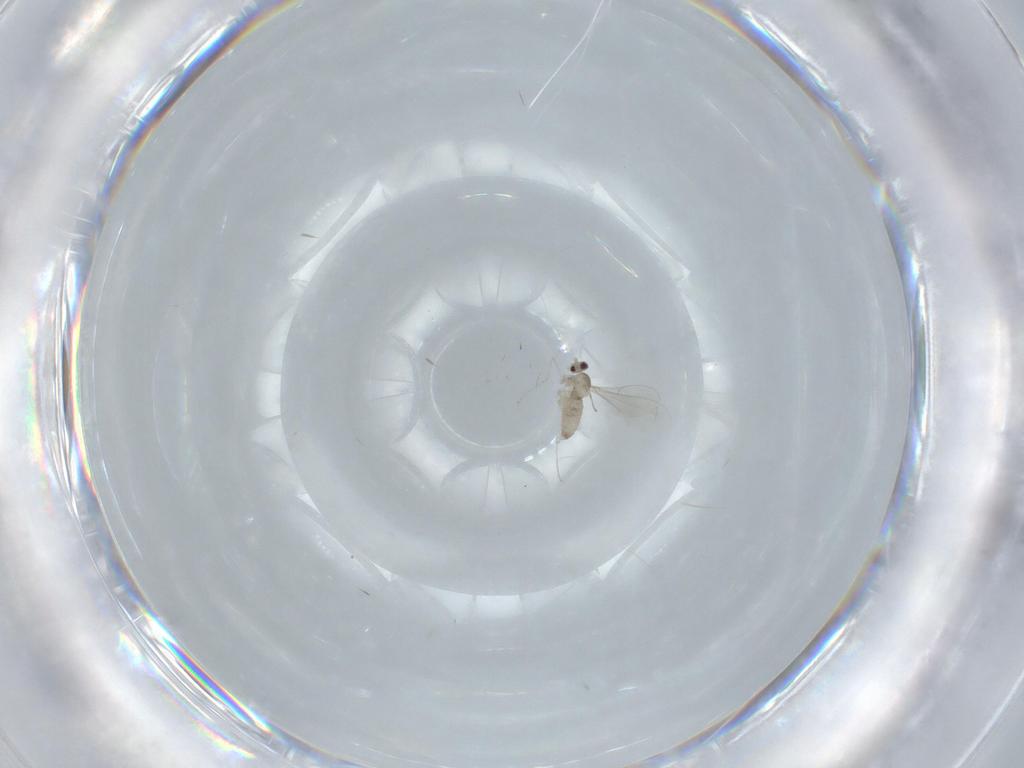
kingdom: Animalia
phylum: Arthropoda
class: Insecta
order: Diptera
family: Cecidomyiidae
